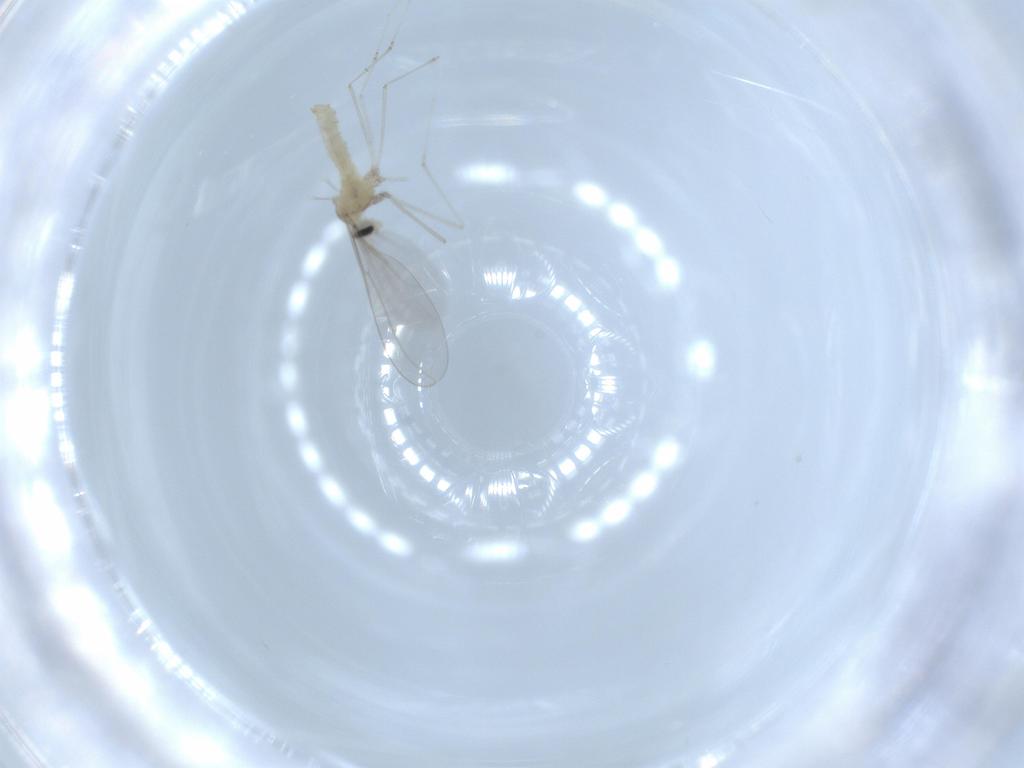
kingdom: Animalia
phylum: Arthropoda
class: Insecta
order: Diptera
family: Cecidomyiidae
